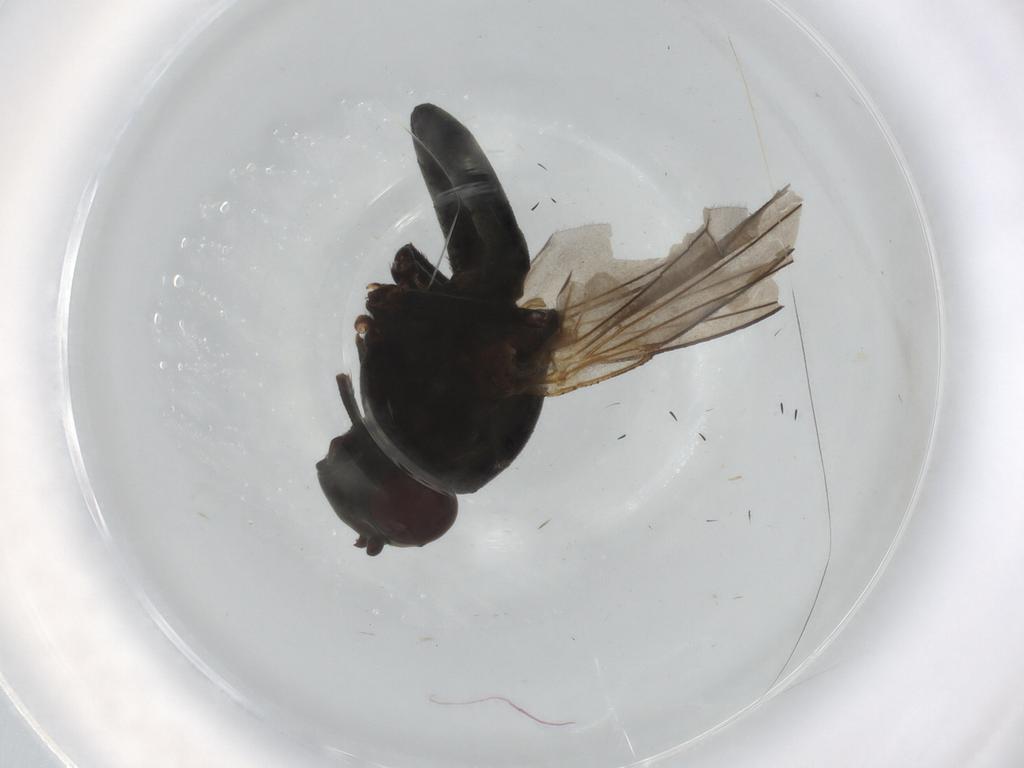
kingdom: Animalia
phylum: Arthropoda
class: Insecta
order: Diptera
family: Ephydridae
